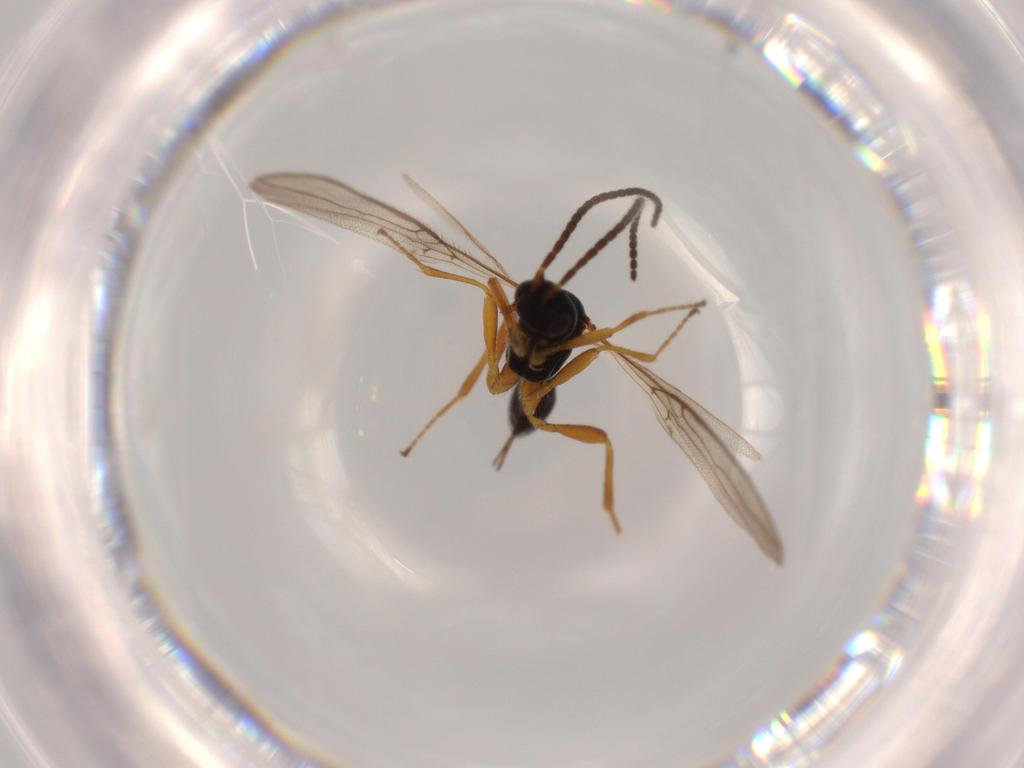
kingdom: Animalia
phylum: Arthropoda
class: Insecta
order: Hymenoptera
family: Braconidae
